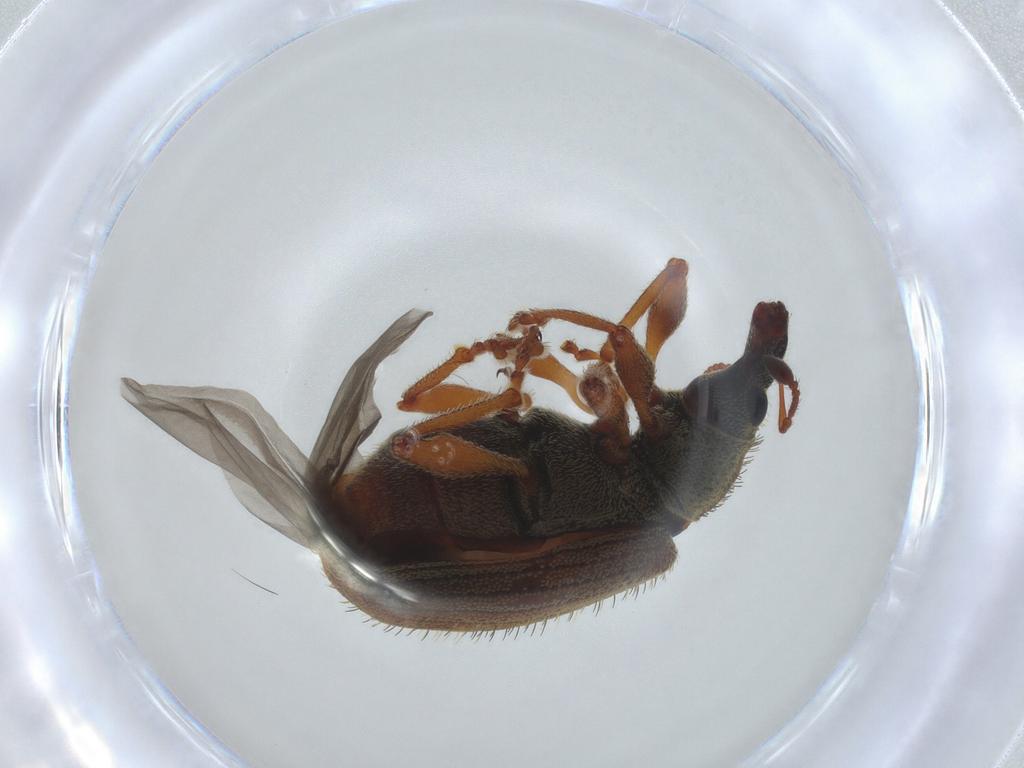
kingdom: Animalia
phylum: Arthropoda
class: Insecta
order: Coleoptera
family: Curculionidae
